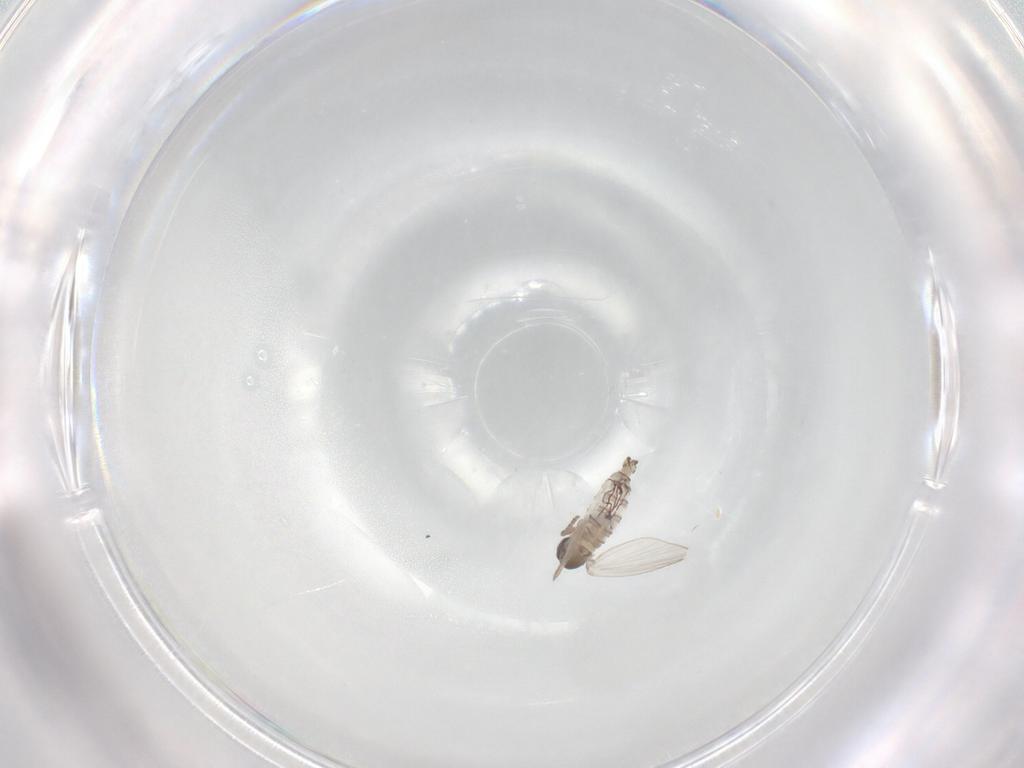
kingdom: Animalia
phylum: Arthropoda
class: Insecta
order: Diptera
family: Psychodidae
